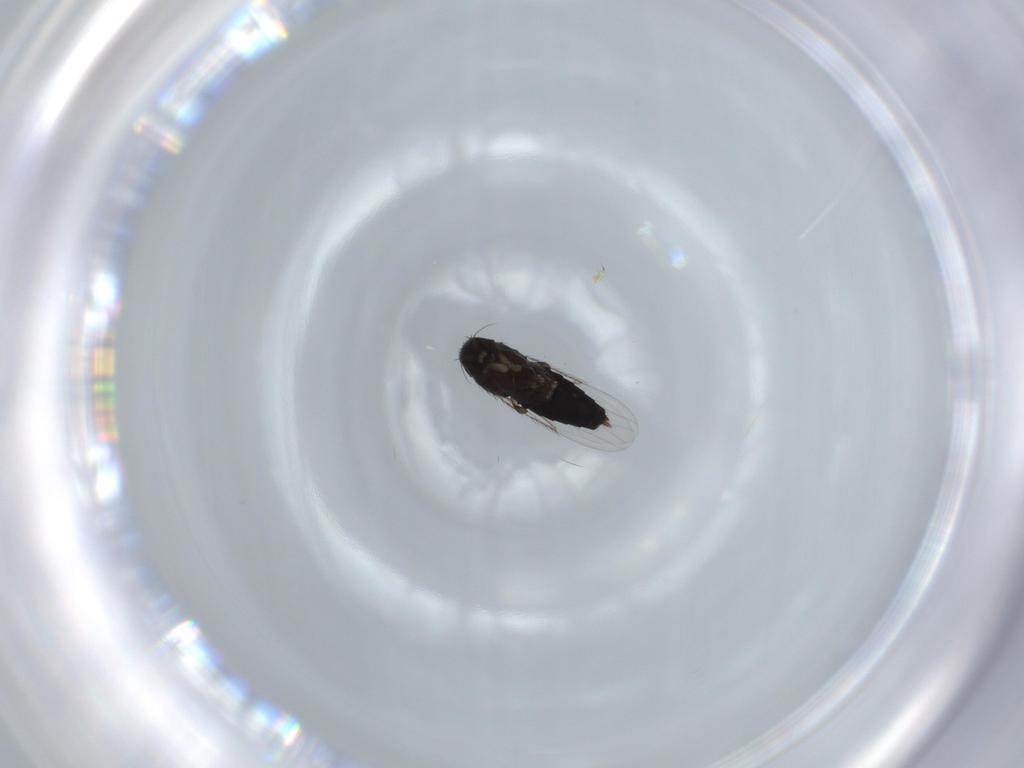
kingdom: Animalia
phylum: Arthropoda
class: Insecta
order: Diptera
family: Phoridae
